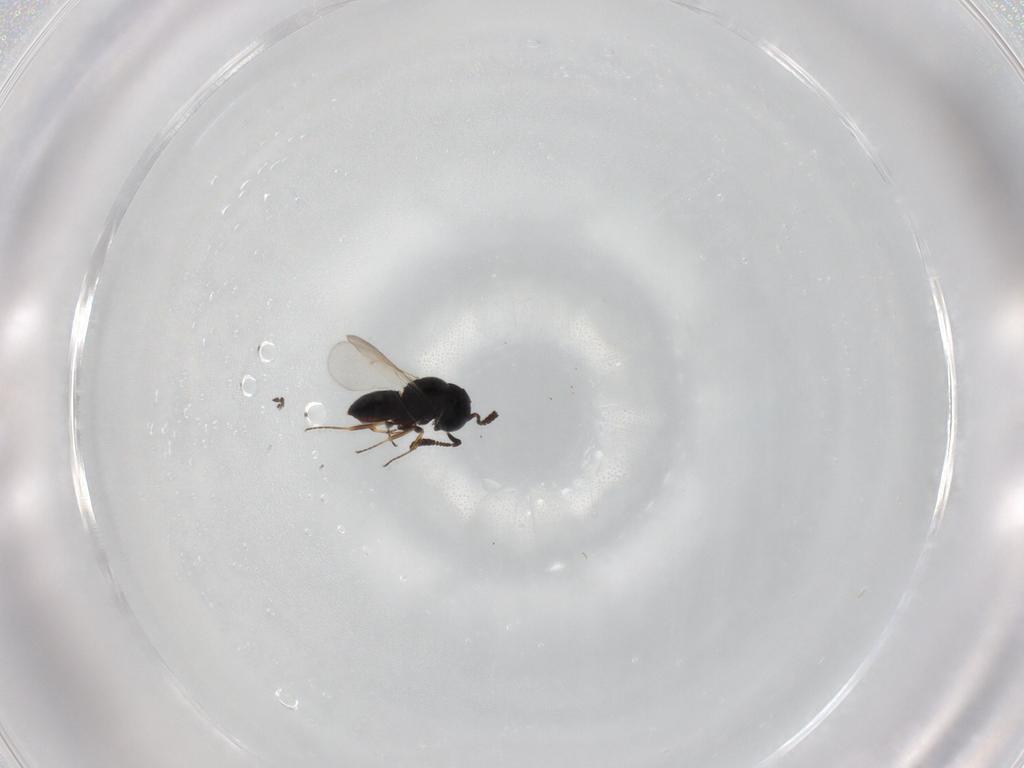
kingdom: Animalia
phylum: Arthropoda
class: Insecta
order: Hymenoptera
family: Scelionidae
